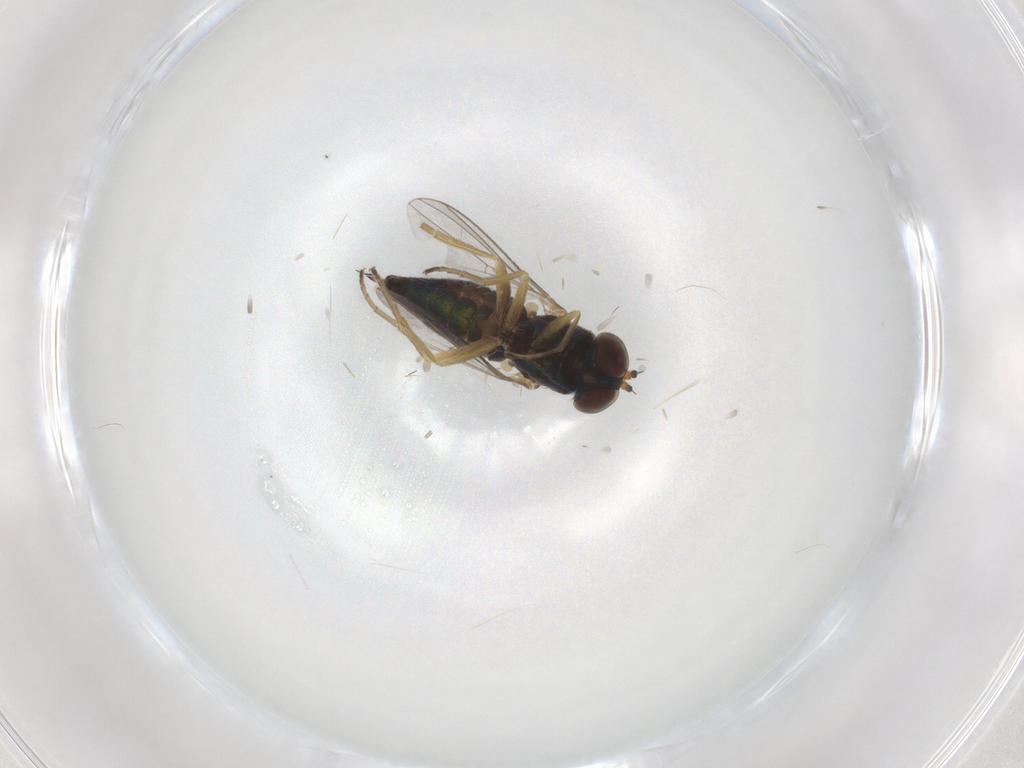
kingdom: Animalia
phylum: Arthropoda
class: Insecta
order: Diptera
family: Dolichopodidae
